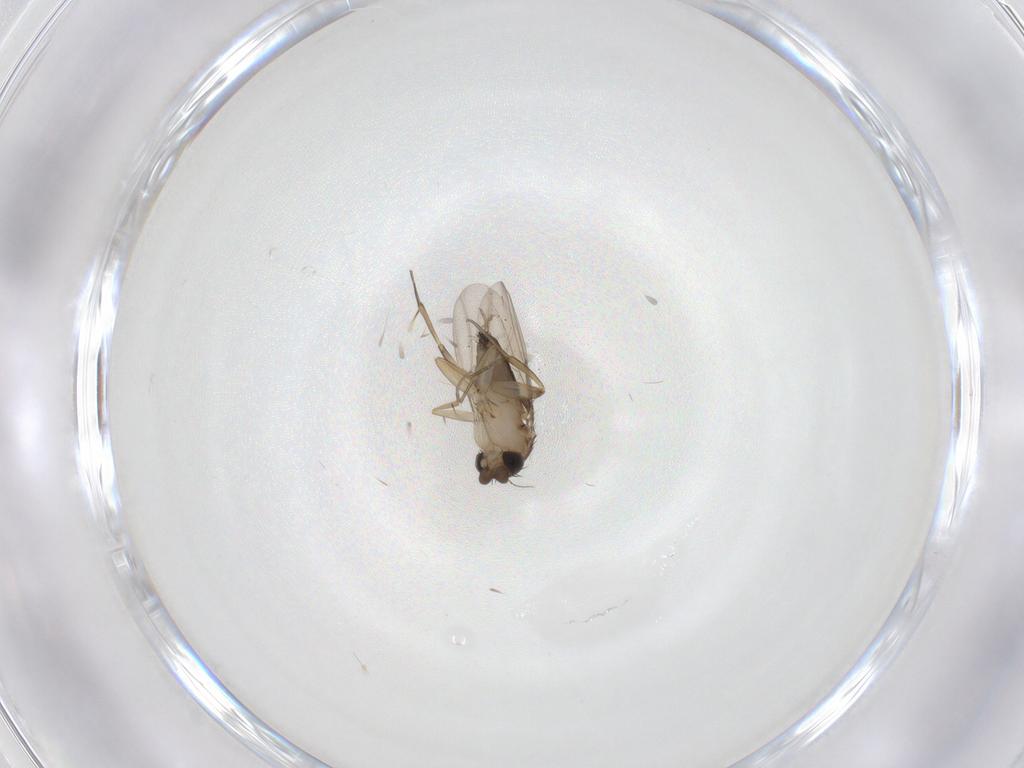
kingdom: Animalia
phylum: Arthropoda
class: Insecta
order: Diptera
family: Phoridae
